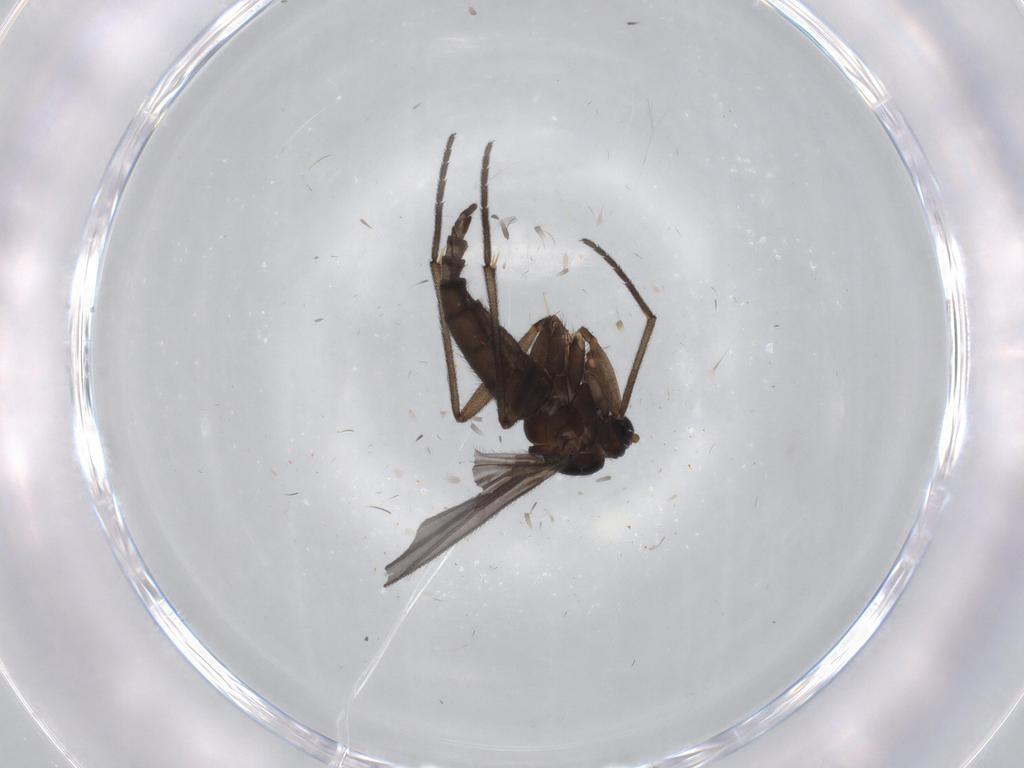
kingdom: Animalia
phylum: Arthropoda
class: Insecta
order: Diptera
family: Sciaridae
